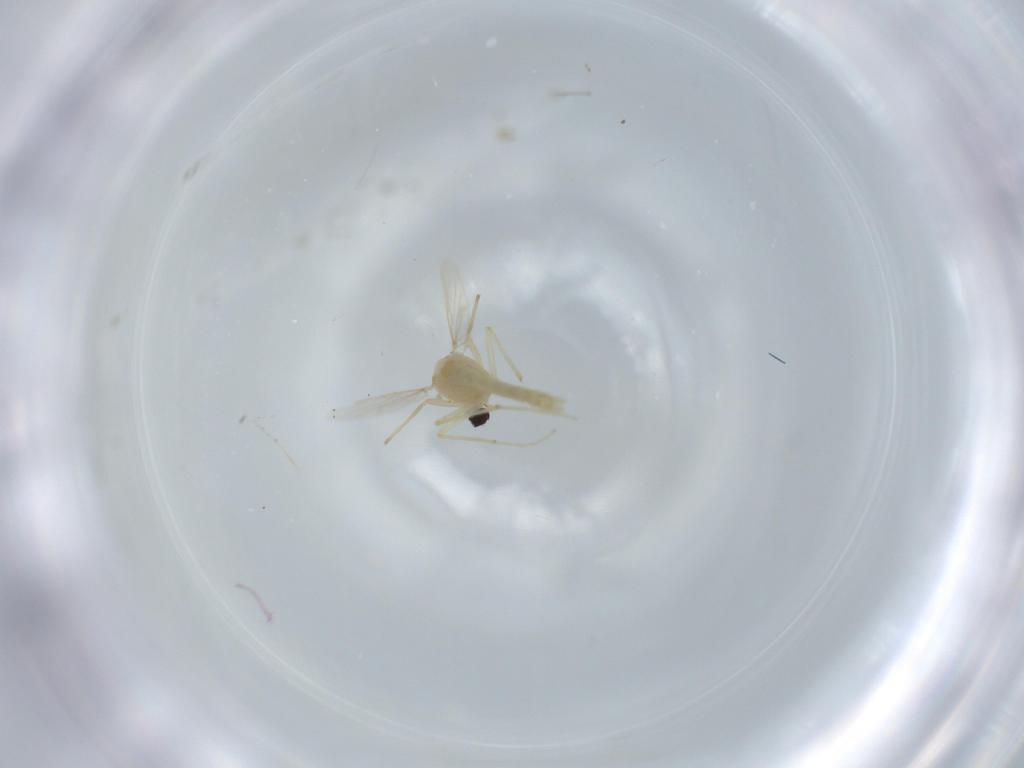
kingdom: Animalia
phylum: Arthropoda
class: Insecta
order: Diptera
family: Chironomidae
